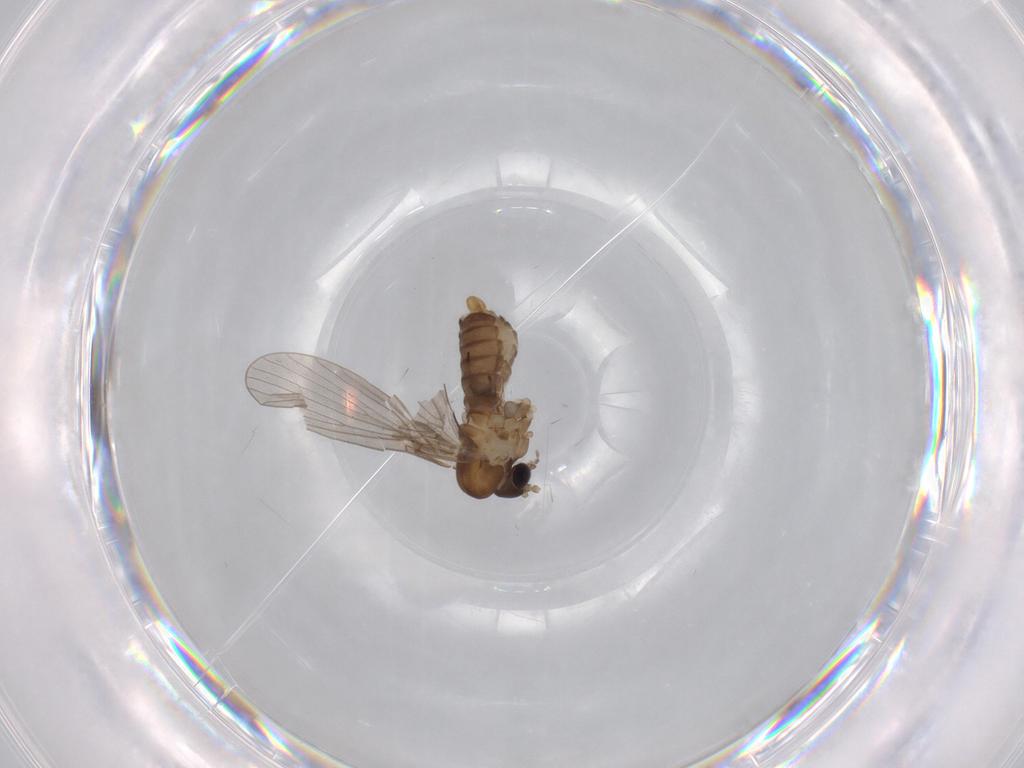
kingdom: Animalia
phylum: Arthropoda
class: Insecta
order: Diptera
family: Psychodidae
